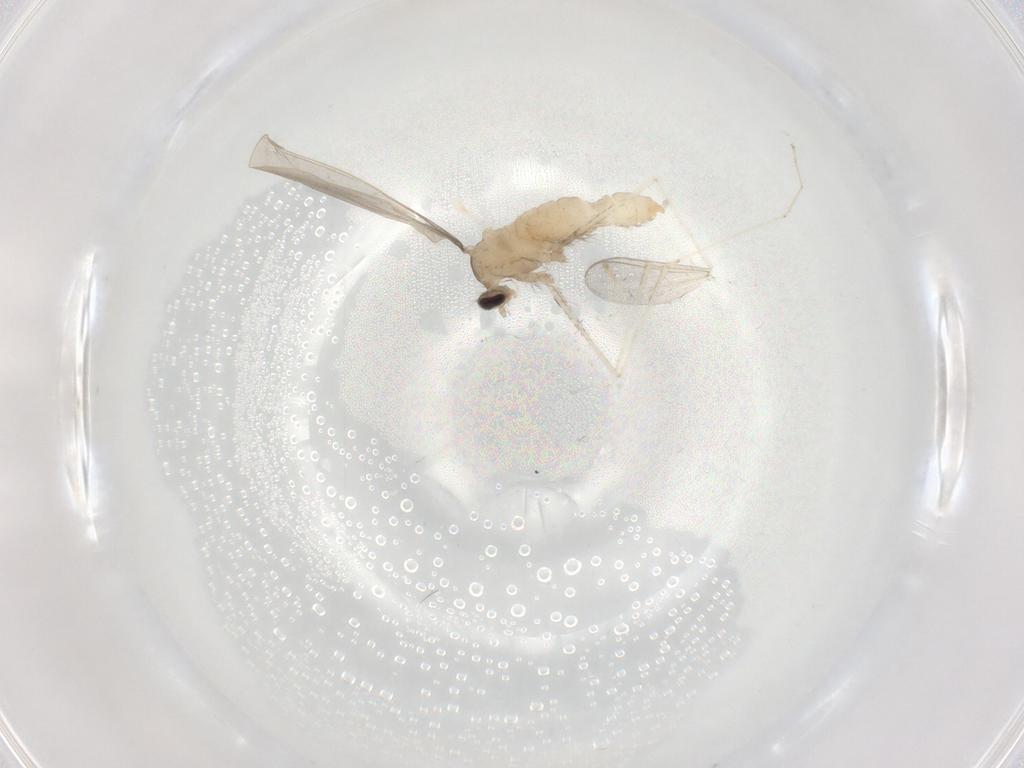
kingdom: Animalia
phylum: Arthropoda
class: Insecta
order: Diptera
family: Cecidomyiidae
